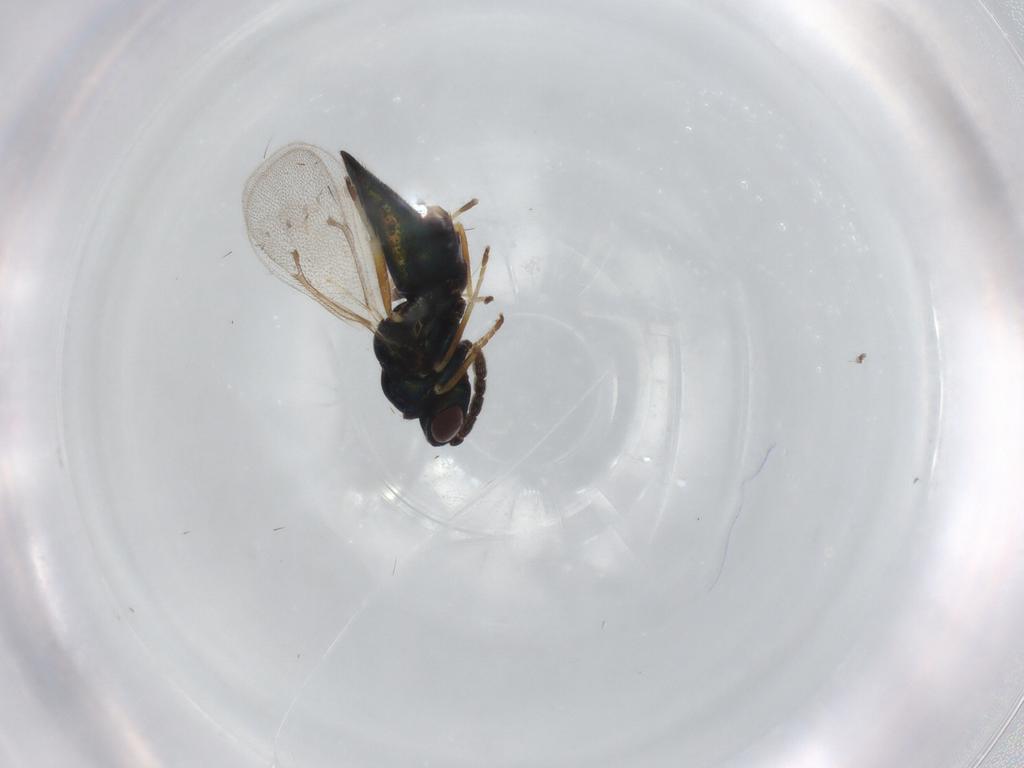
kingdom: Animalia
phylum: Arthropoda
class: Insecta
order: Hymenoptera
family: Eulophidae
